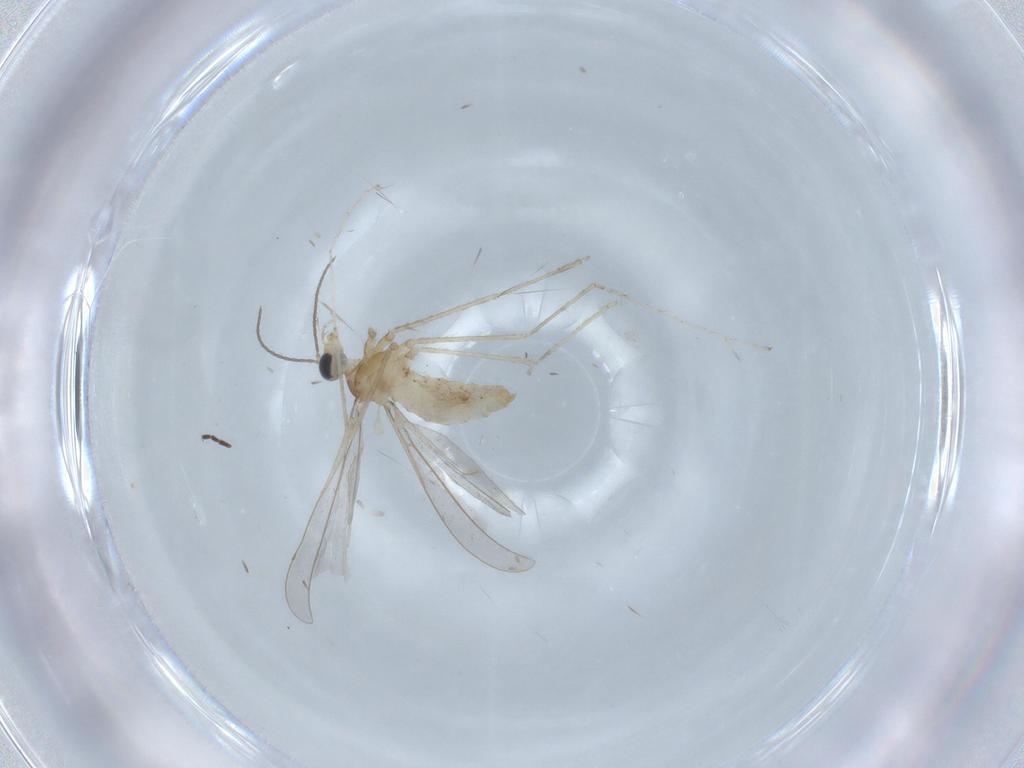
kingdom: Animalia
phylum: Arthropoda
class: Insecta
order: Diptera
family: Cecidomyiidae
